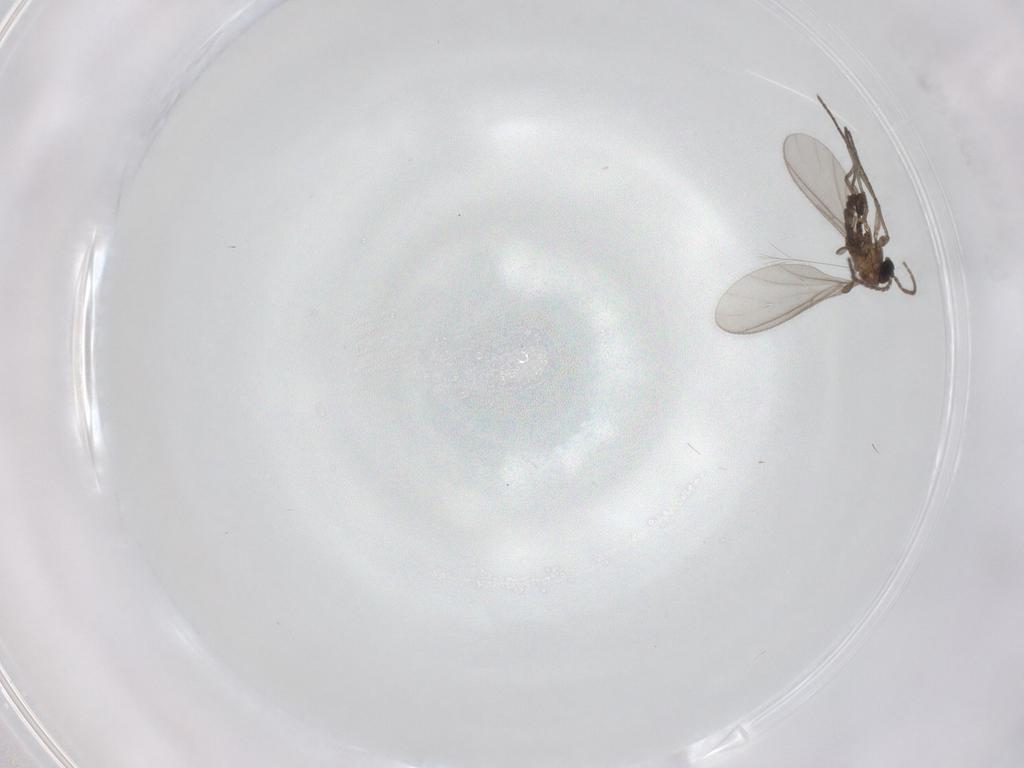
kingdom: Animalia
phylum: Arthropoda
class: Insecta
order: Diptera
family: Sciaridae
